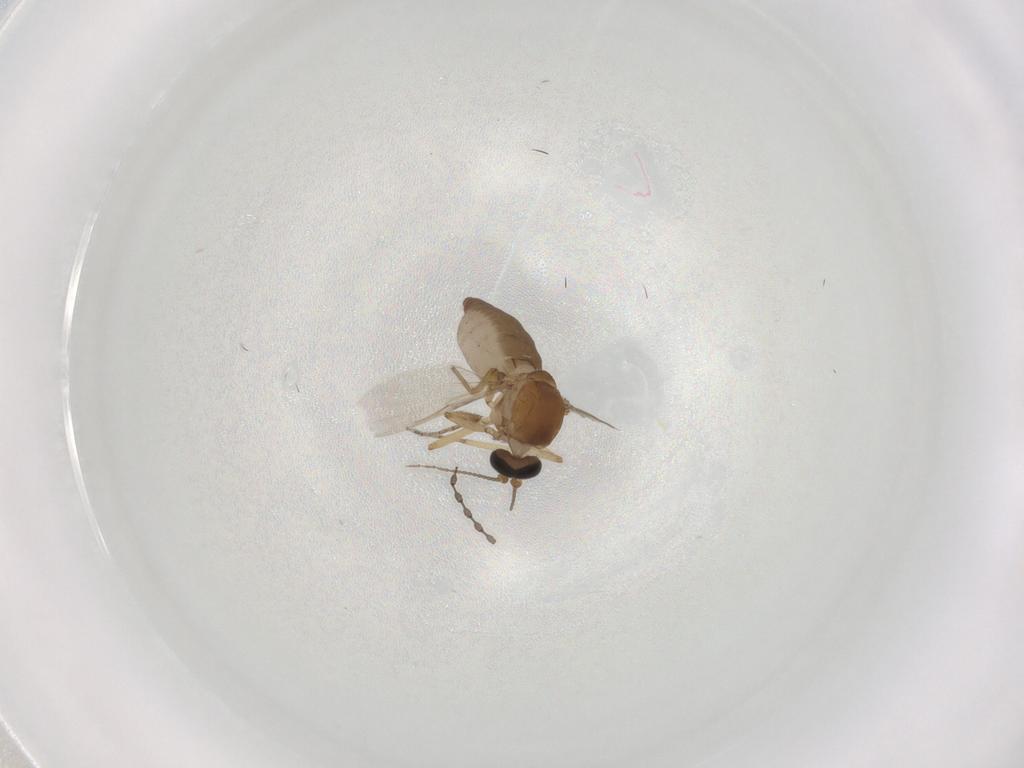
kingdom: Animalia
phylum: Arthropoda
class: Insecta
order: Diptera
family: Ceratopogonidae
